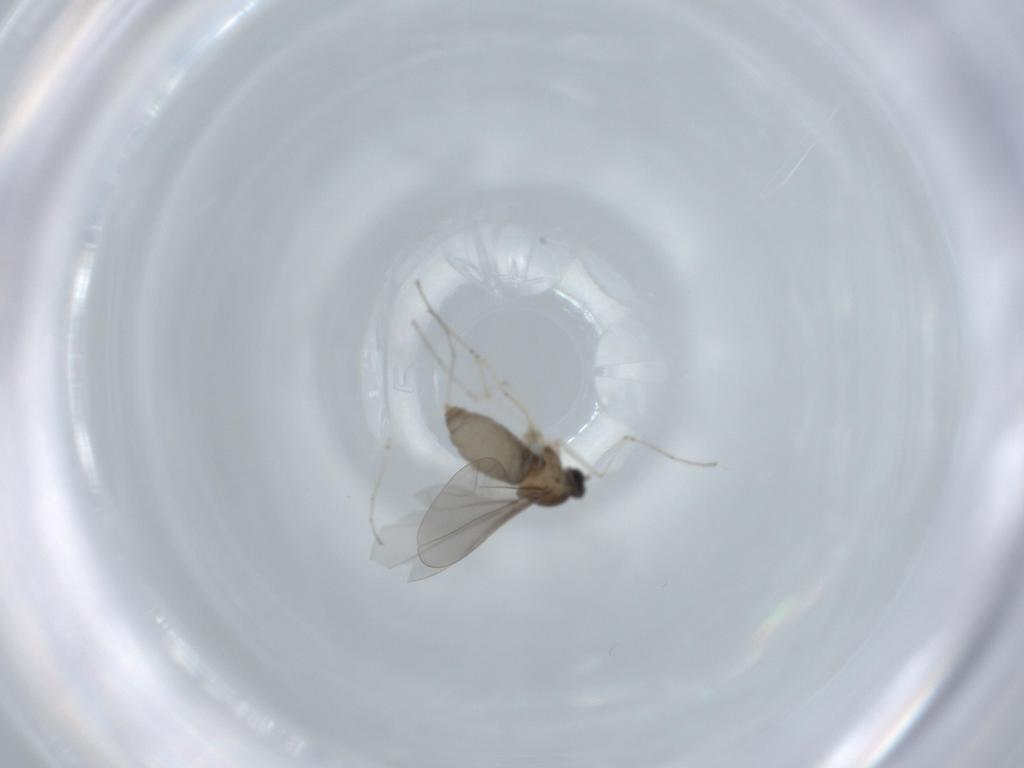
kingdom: Animalia
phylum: Arthropoda
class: Insecta
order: Diptera
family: Cecidomyiidae
